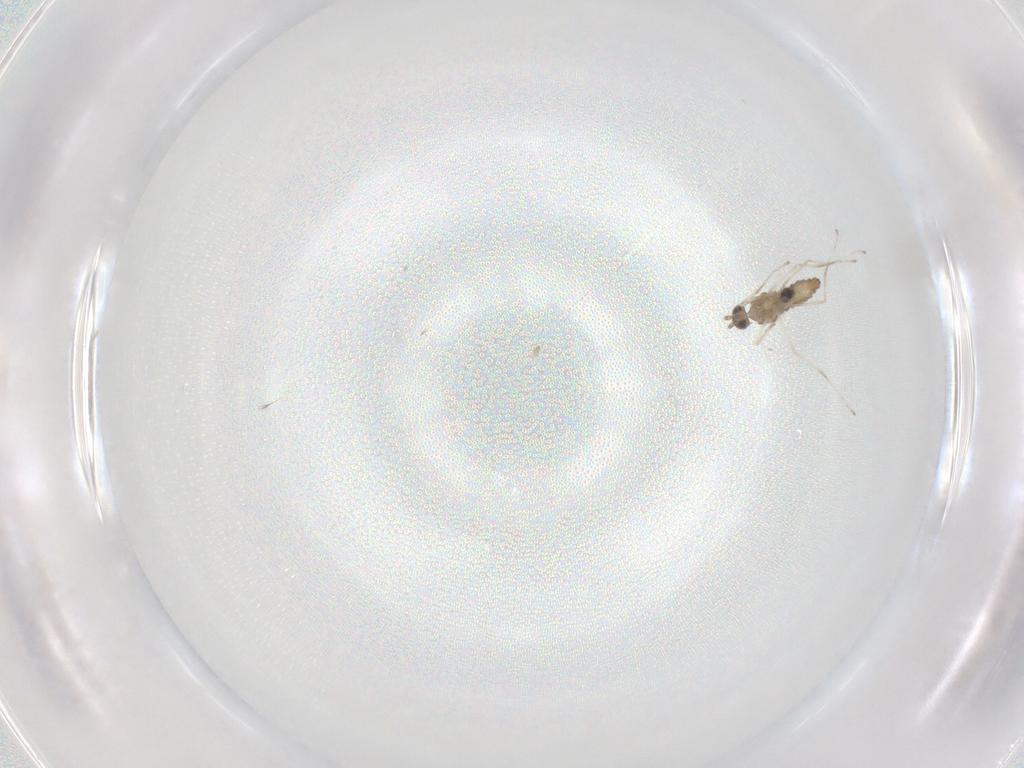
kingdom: Animalia
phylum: Arthropoda
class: Insecta
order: Diptera
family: Cecidomyiidae
